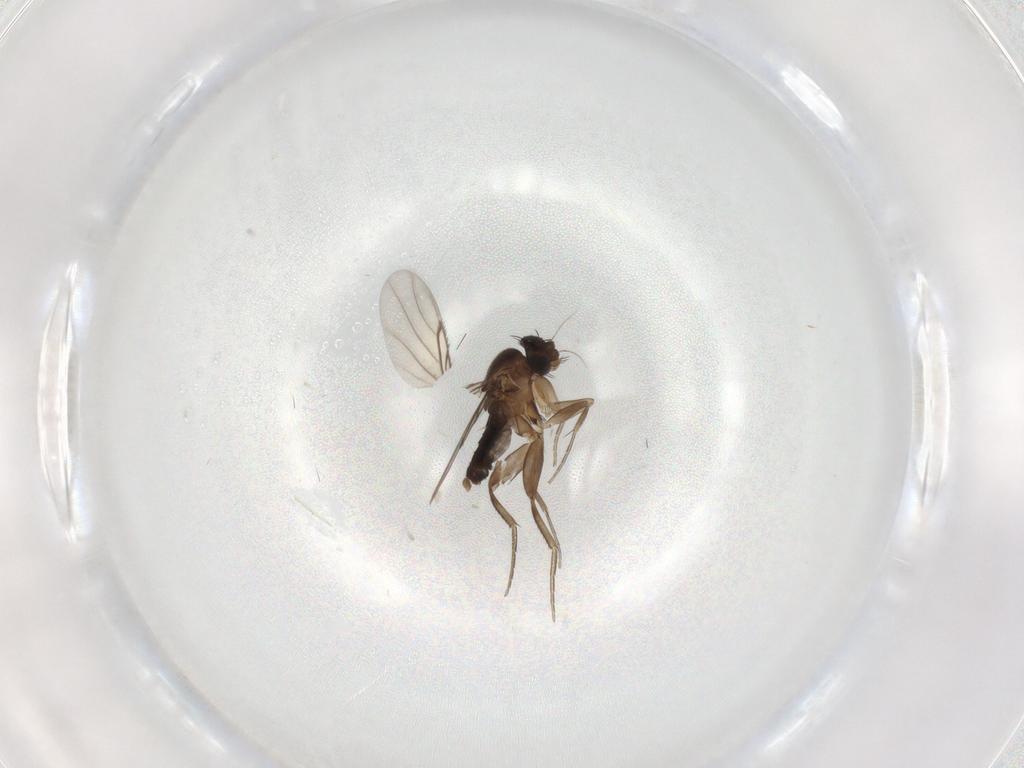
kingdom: Animalia
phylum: Arthropoda
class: Insecta
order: Diptera
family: Phoridae
